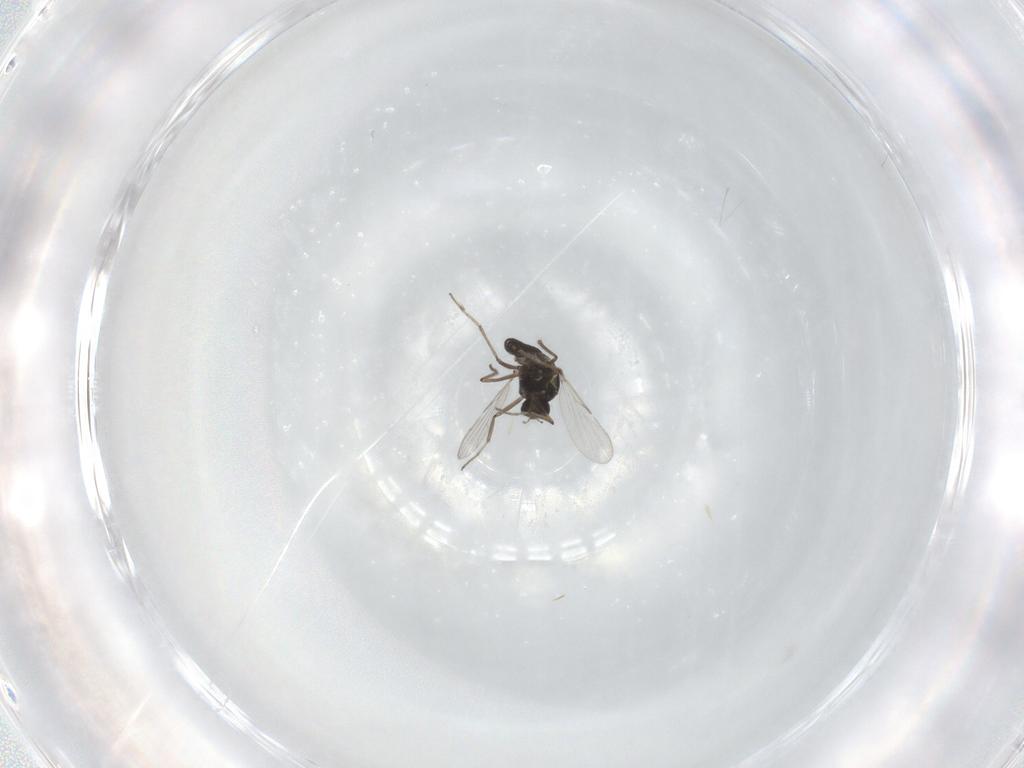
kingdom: Animalia
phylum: Arthropoda
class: Insecta
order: Diptera
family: Ceratopogonidae
